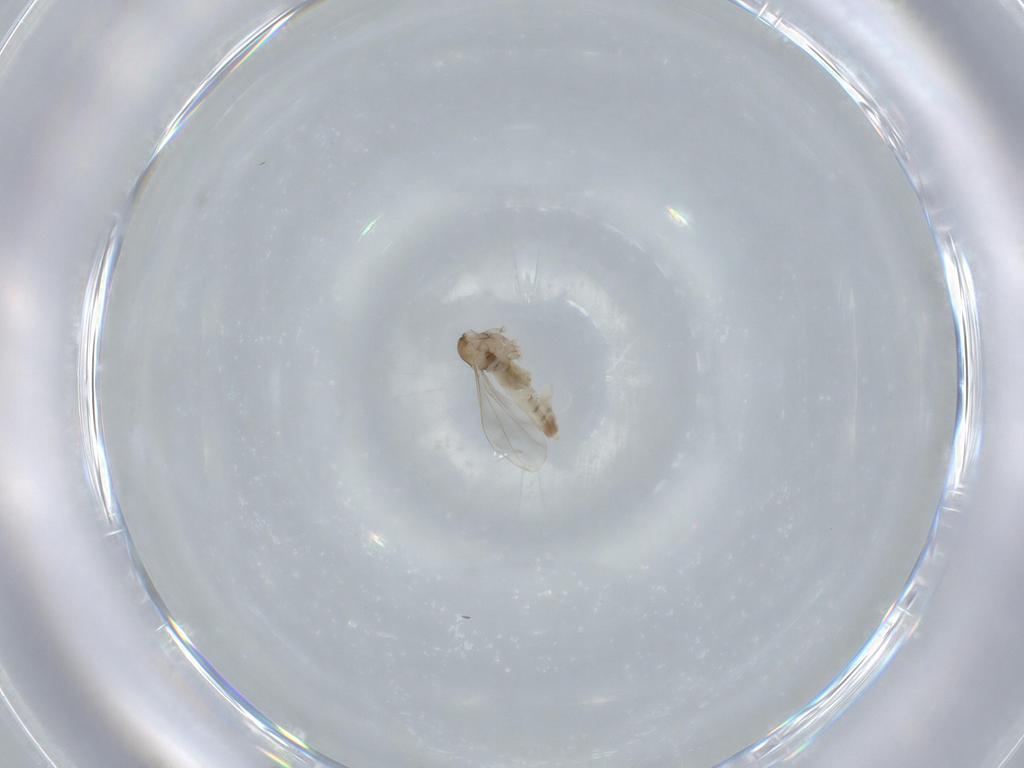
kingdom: Animalia
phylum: Arthropoda
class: Insecta
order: Diptera
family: Cecidomyiidae
